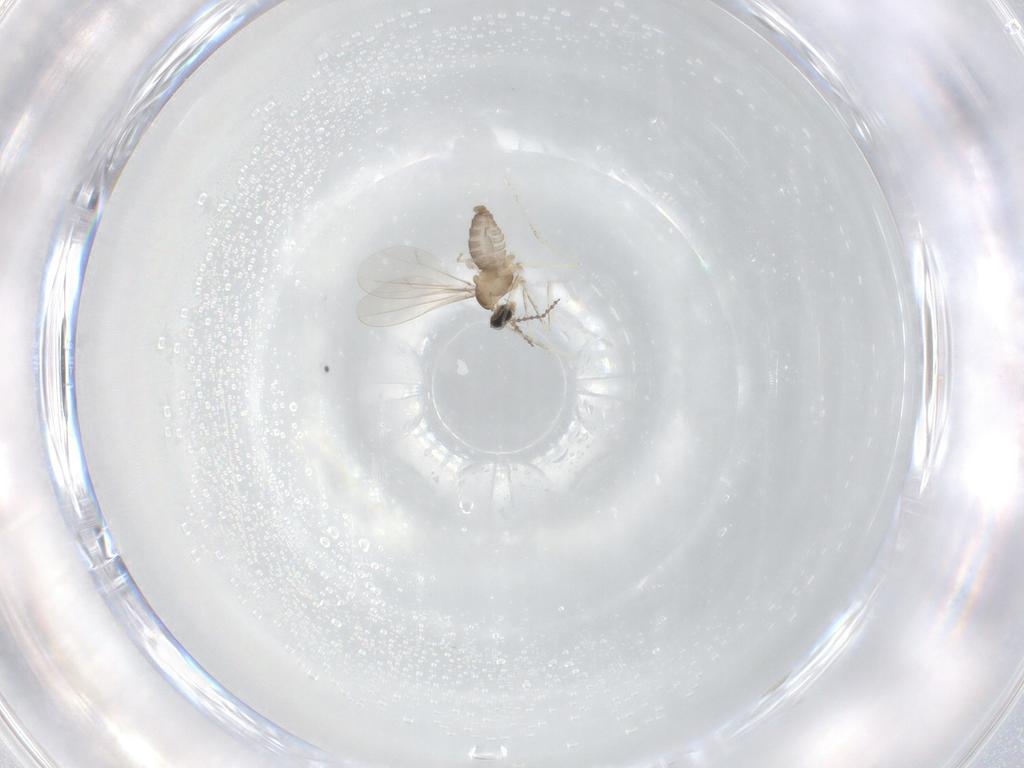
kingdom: Animalia
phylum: Arthropoda
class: Insecta
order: Diptera
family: Cecidomyiidae
